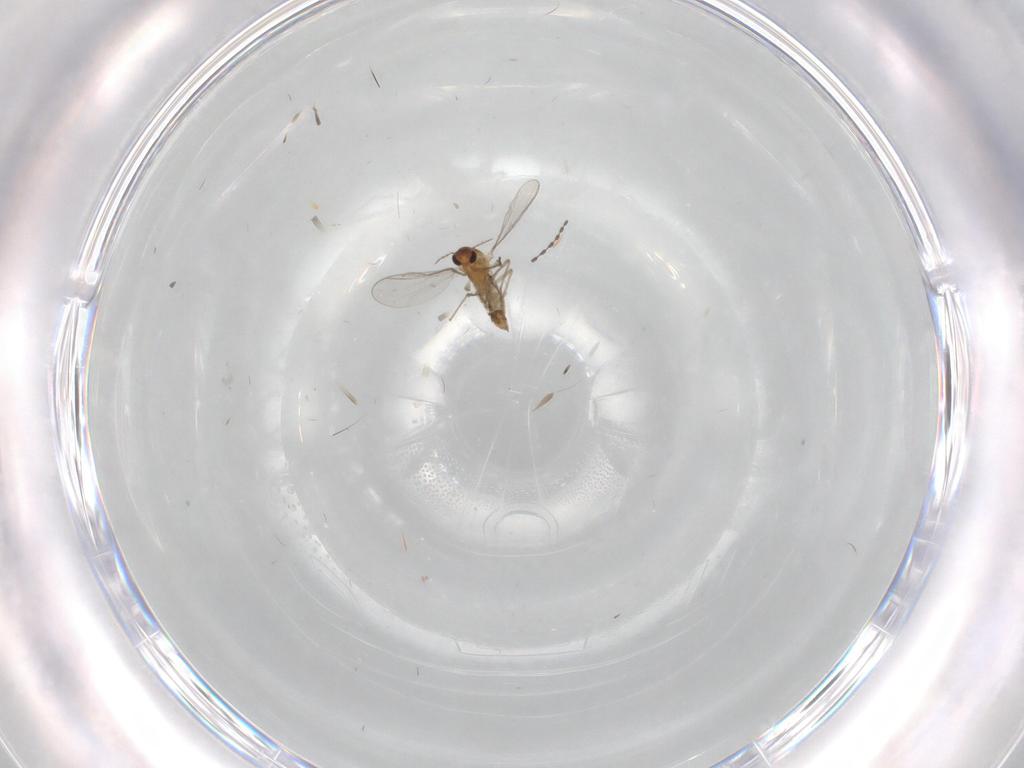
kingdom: Animalia
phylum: Arthropoda
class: Insecta
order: Diptera
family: Chironomidae
